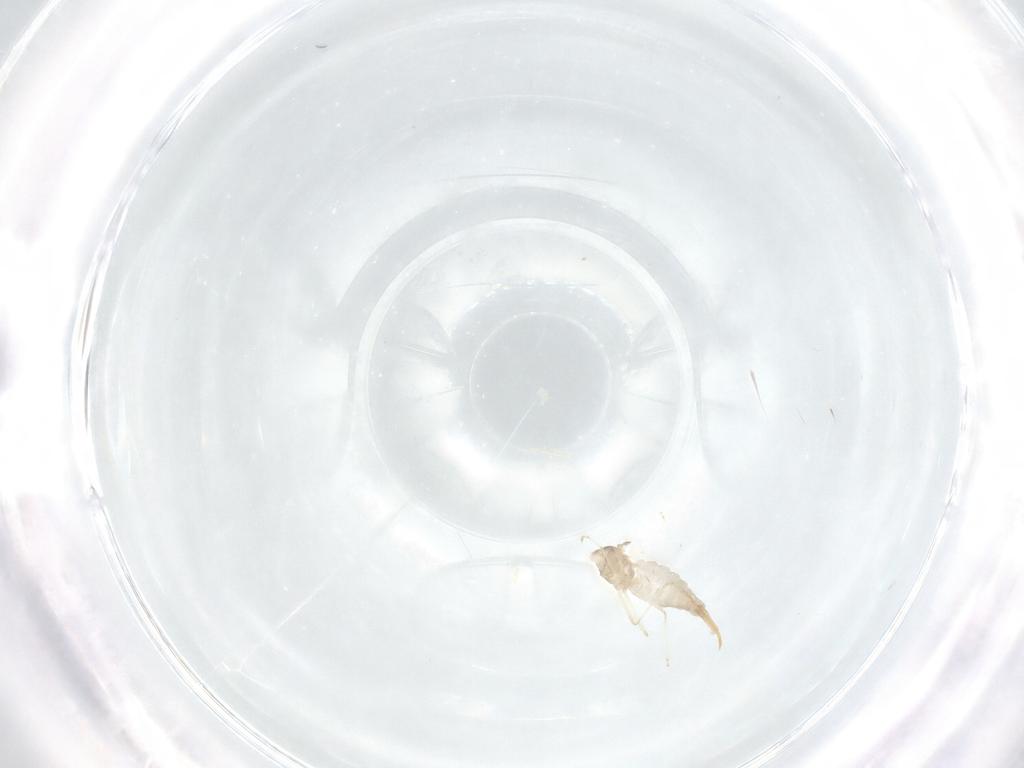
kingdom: Animalia
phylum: Arthropoda
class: Insecta
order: Diptera
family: Cecidomyiidae
